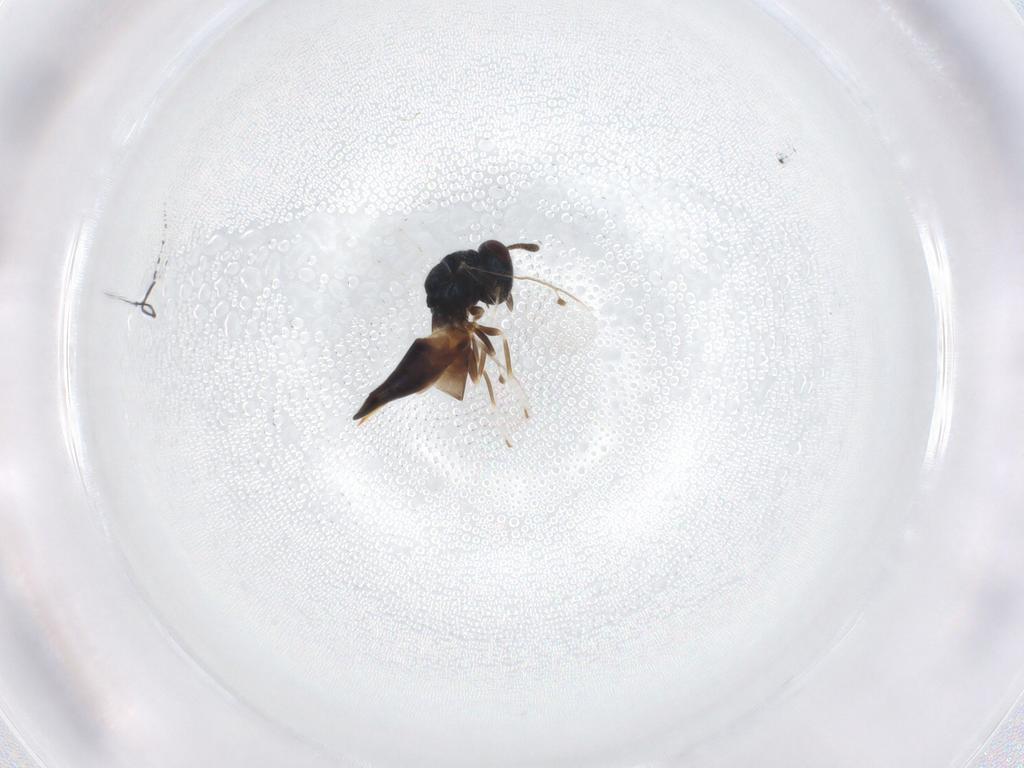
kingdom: Animalia
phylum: Arthropoda
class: Insecta
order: Hymenoptera
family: Pteromalidae
